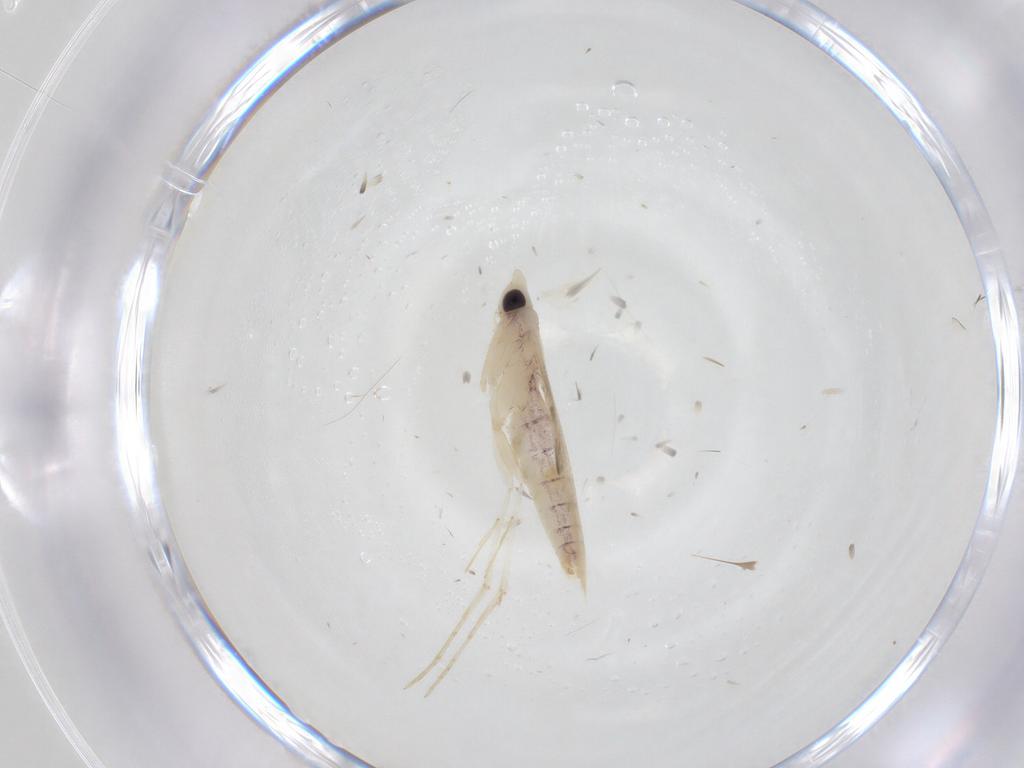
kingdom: Animalia
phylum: Arthropoda
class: Insecta
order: Lepidoptera
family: Saturniidae
